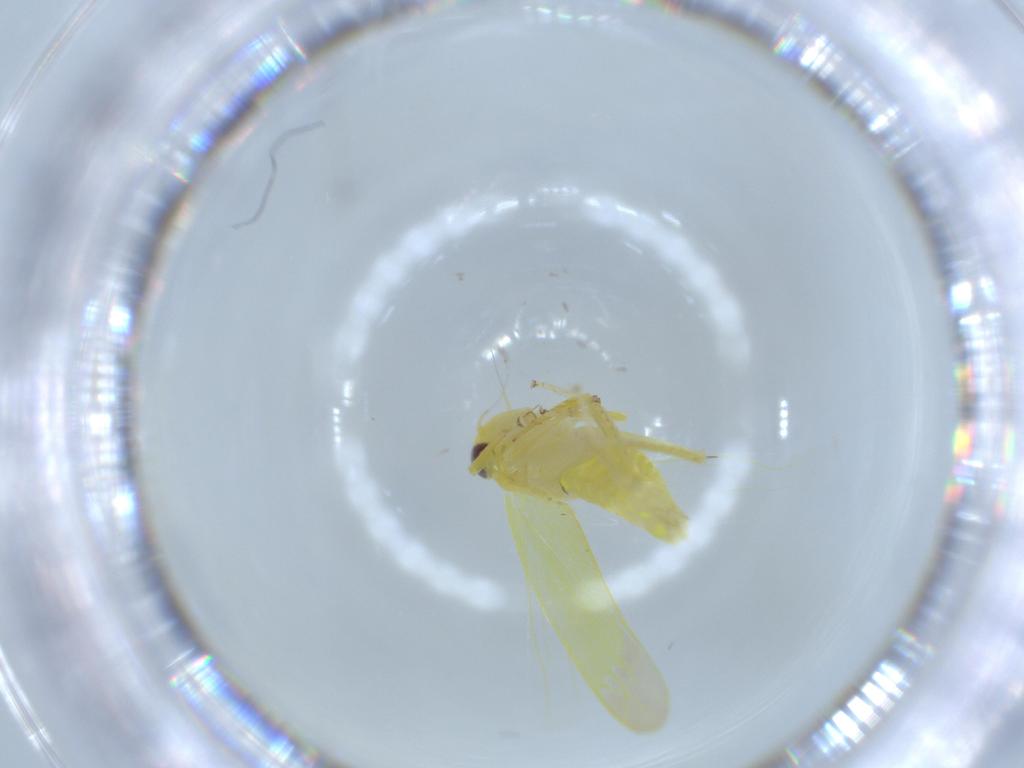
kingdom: Animalia
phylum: Arthropoda
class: Insecta
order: Hemiptera
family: Cicadellidae
